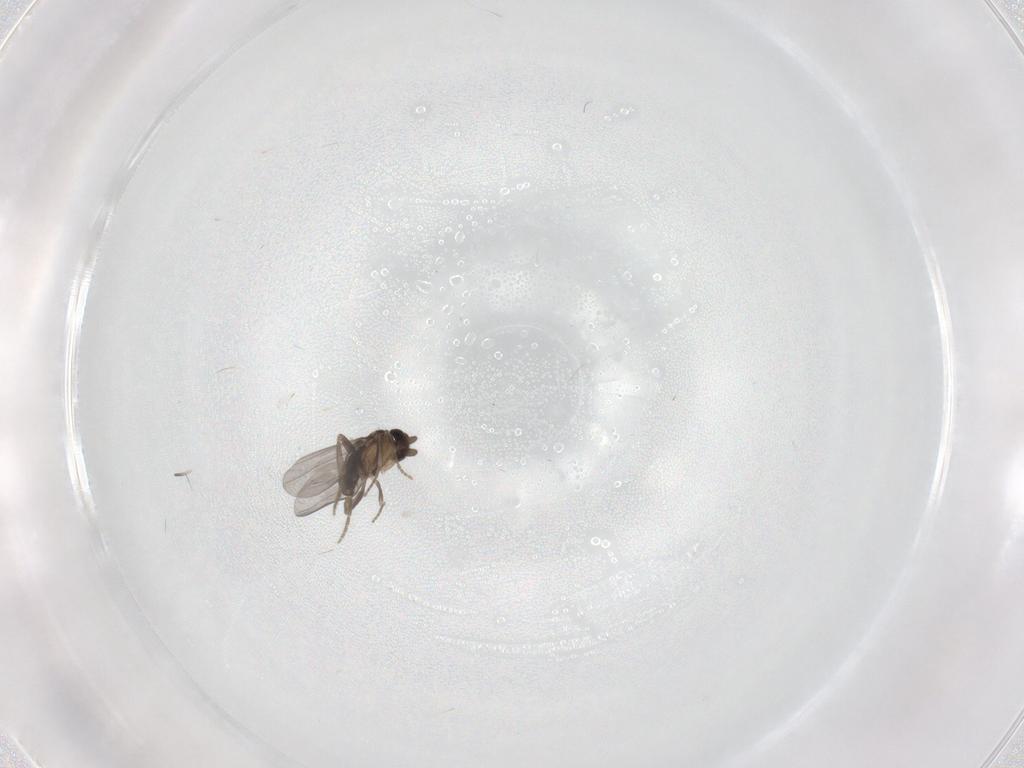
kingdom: Animalia
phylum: Arthropoda
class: Insecta
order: Diptera
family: Chironomidae
